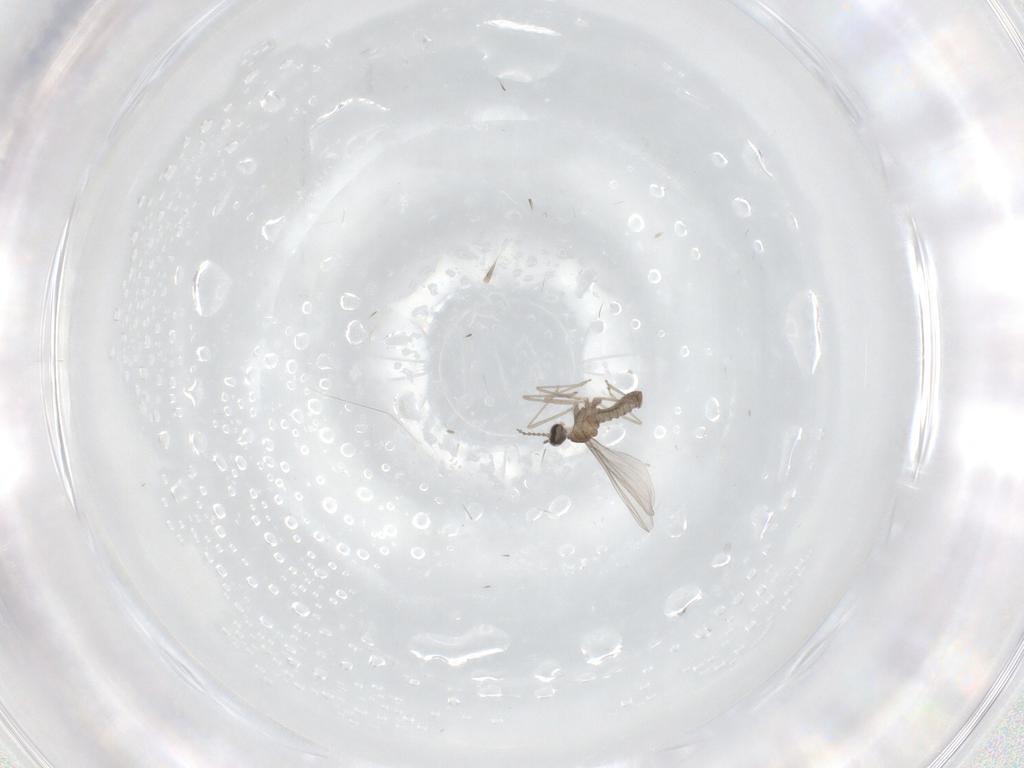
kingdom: Animalia
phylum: Arthropoda
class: Insecta
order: Diptera
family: Cecidomyiidae
